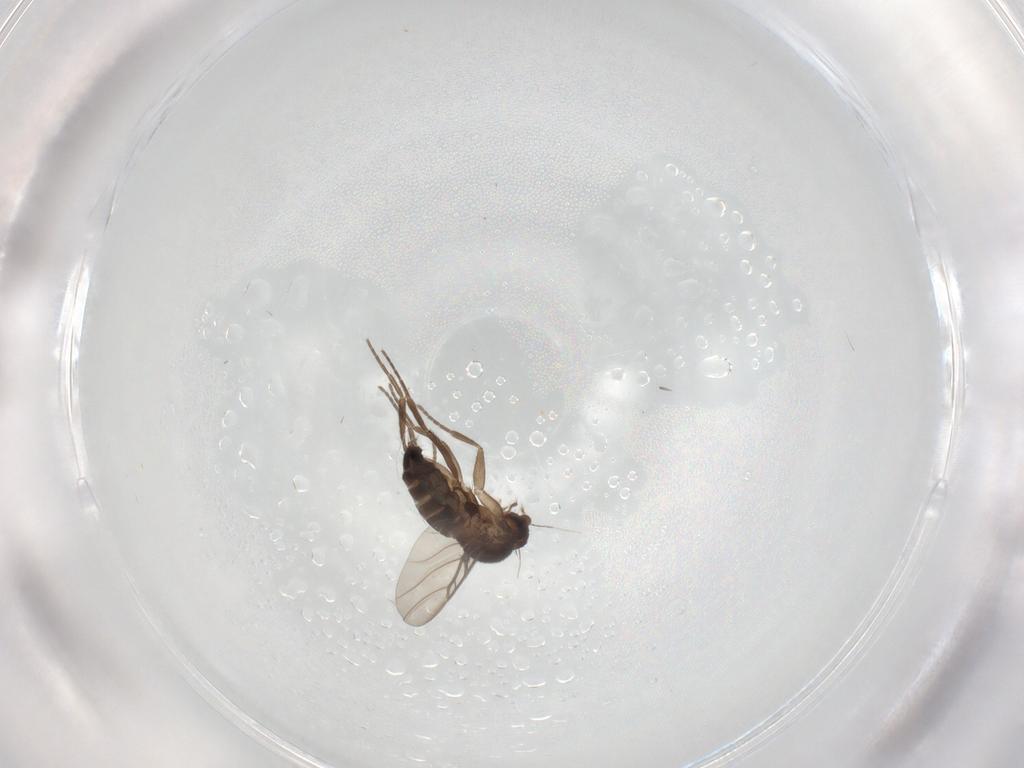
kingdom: Animalia
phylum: Arthropoda
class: Insecta
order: Diptera
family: Phoridae
